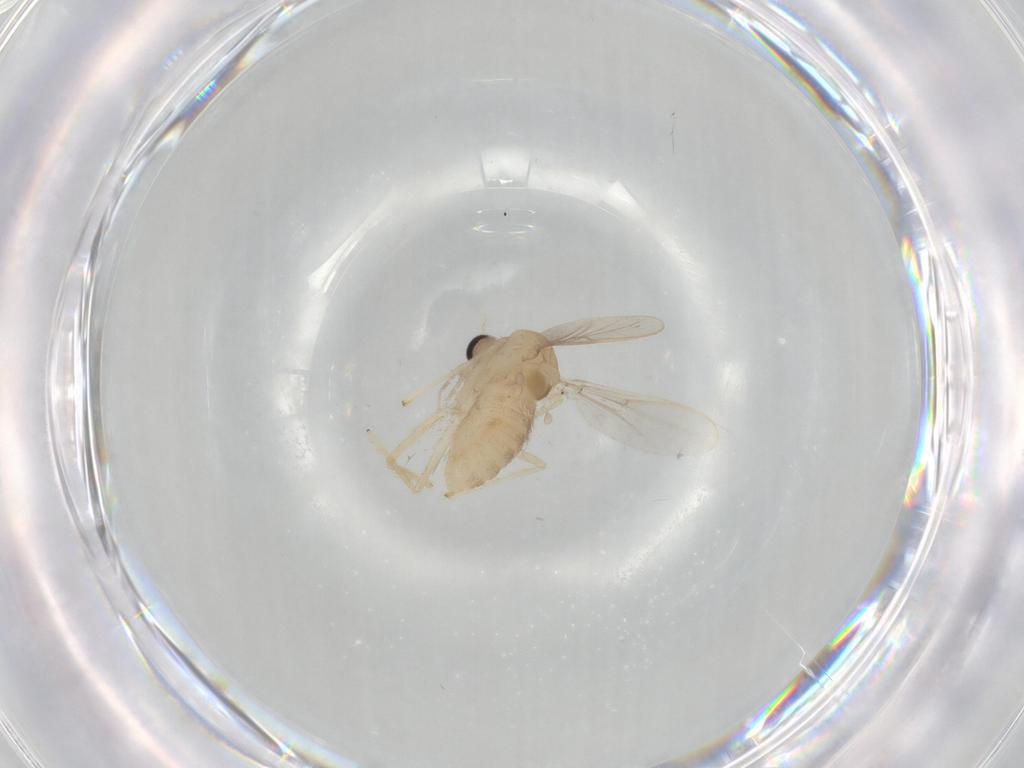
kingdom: Animalia
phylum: Arthropoda
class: Insecta
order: Diptera
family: Chironomidae
